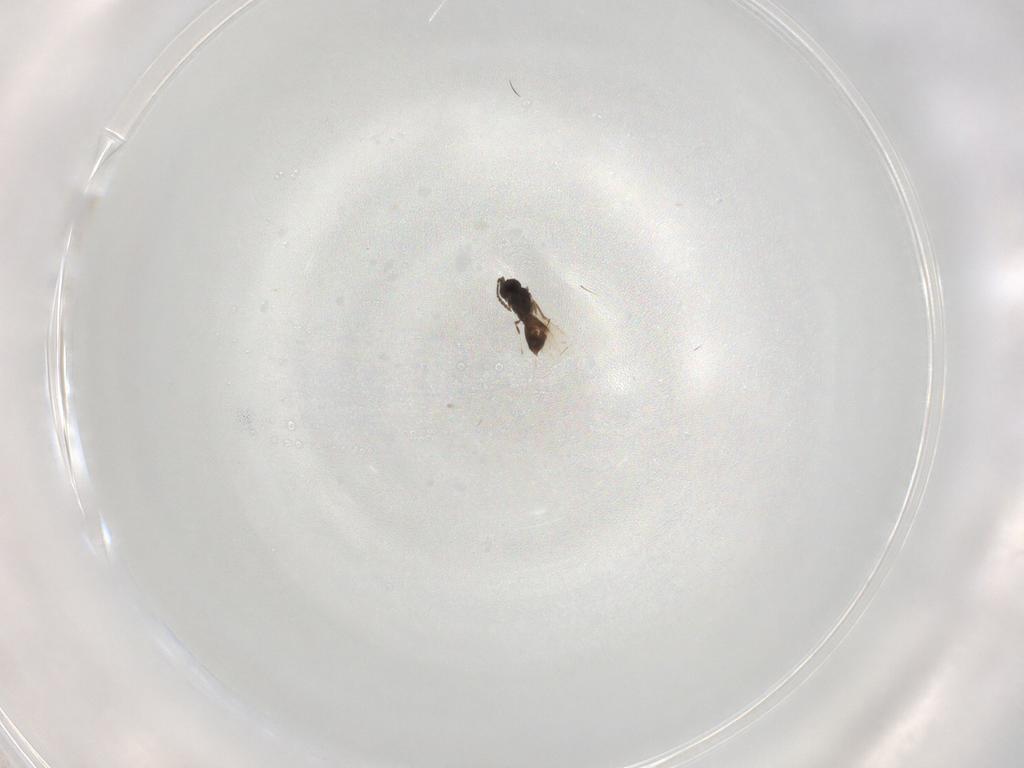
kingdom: Animalia
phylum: Arthropoda
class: Insecta
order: Hymenoptera
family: Scelionidae
